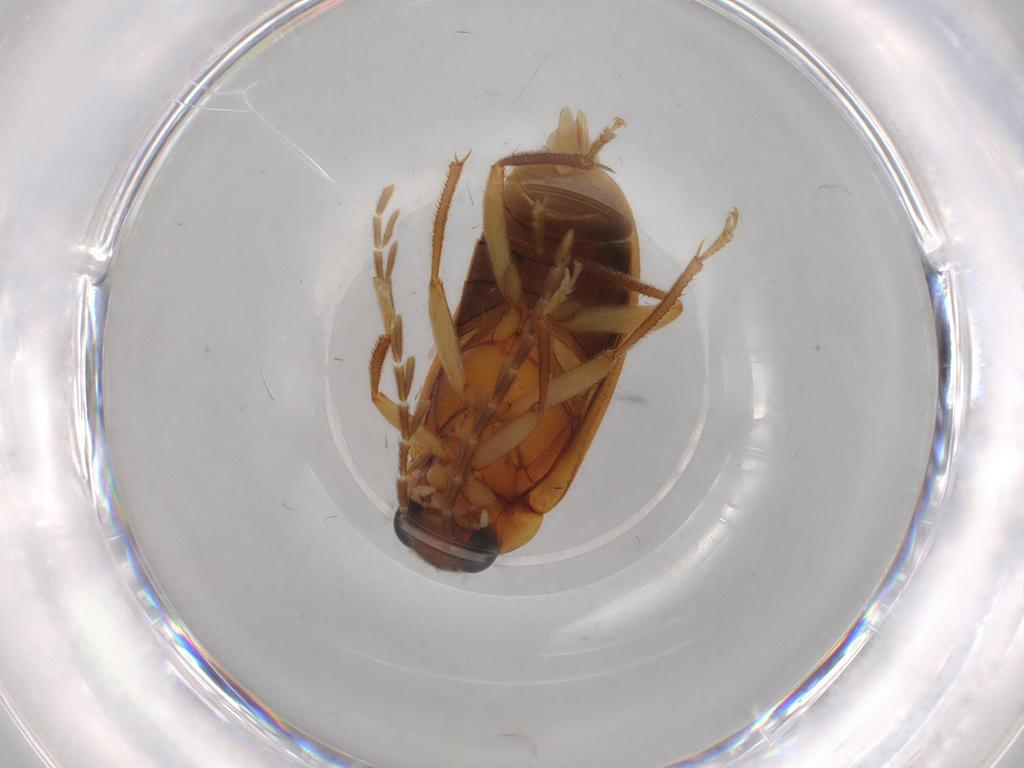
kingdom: Animalia
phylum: Arthropoda
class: Insecta
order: Coleoptera
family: Ptilodactylidae
